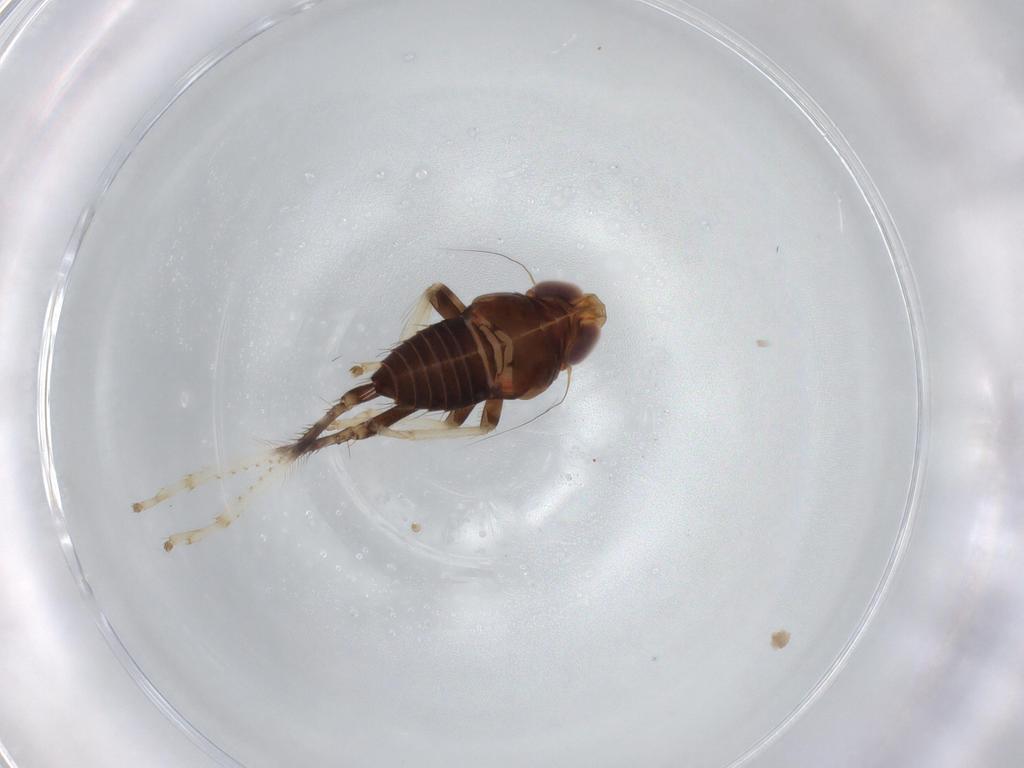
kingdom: Animalia
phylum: Arthropoda
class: Insecta
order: Hemiptera
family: Cicadellidae
